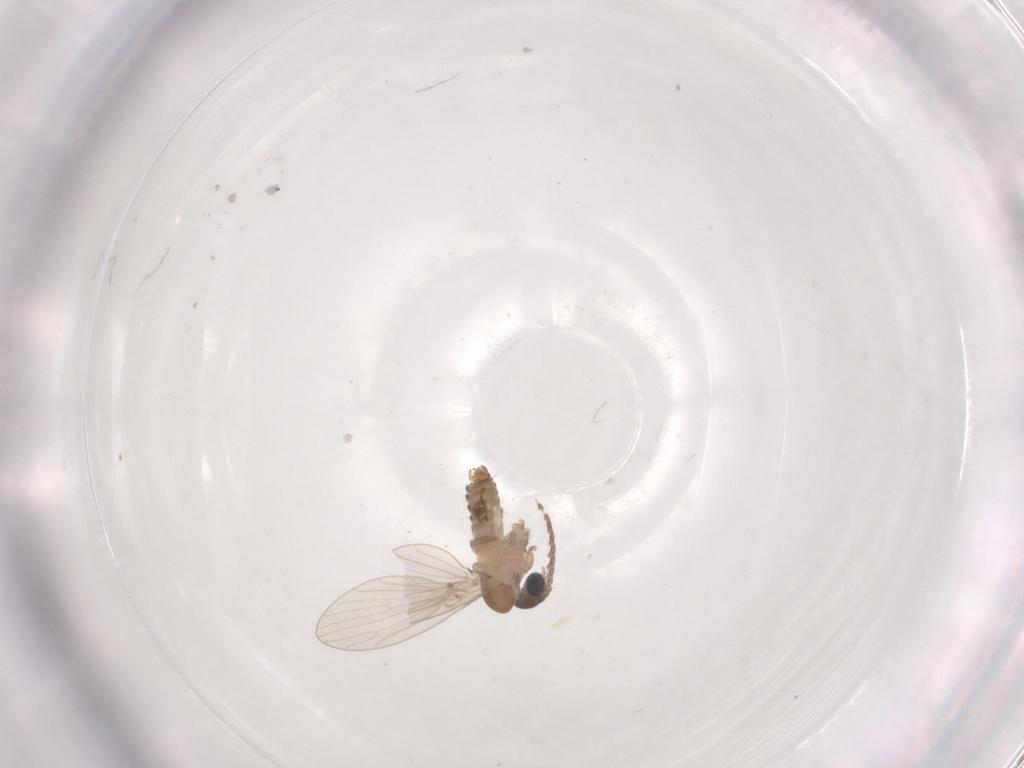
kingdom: Animalia
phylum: Arthropoda
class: Insecta
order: Diptera
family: Psychodidae
